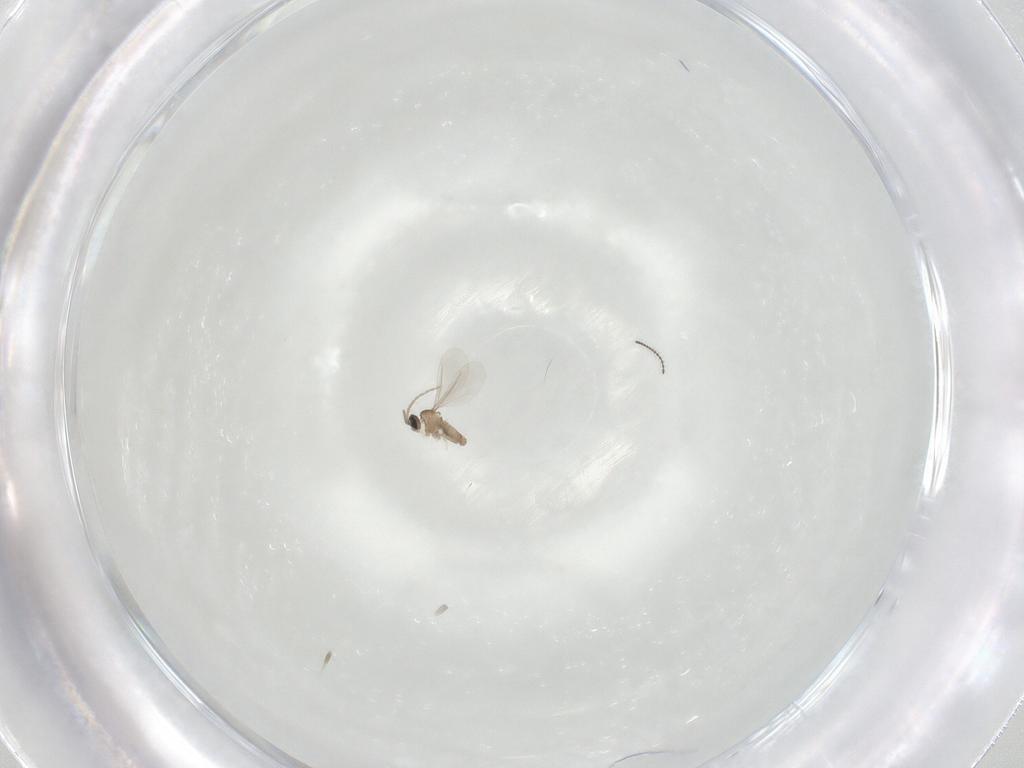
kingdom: Animalia
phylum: Arthropoda
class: Insecta
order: Diptera
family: Cecidomyiidae
